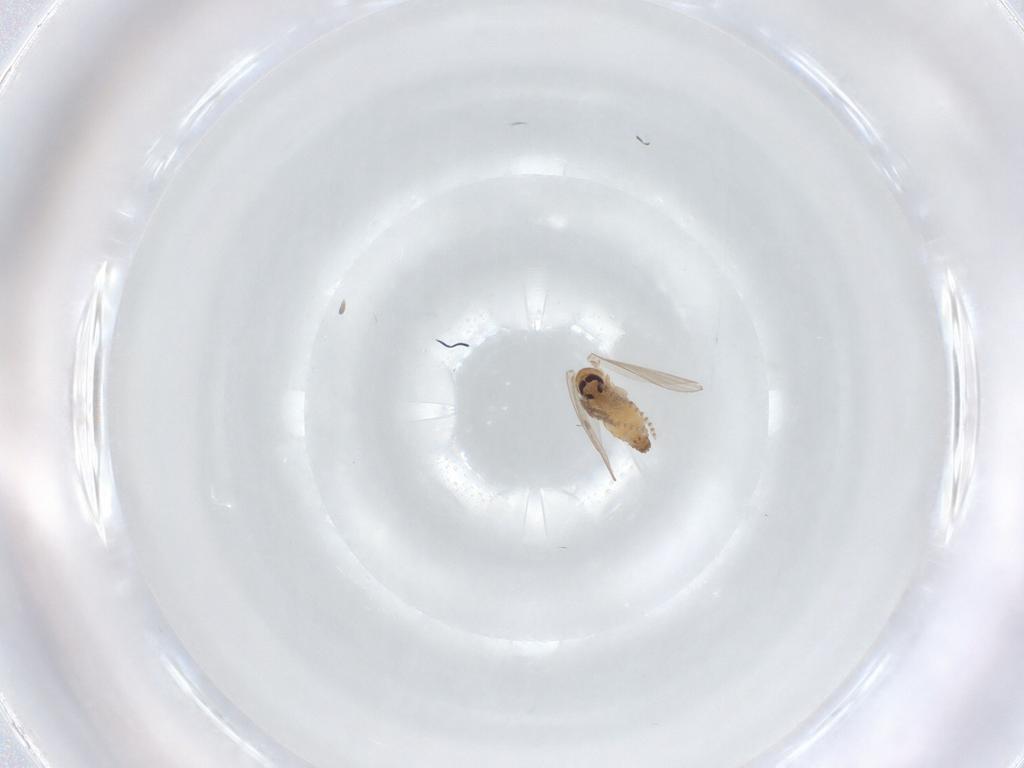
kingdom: Animalia
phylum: Arthropoda
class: Insecta
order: Diptera
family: Psychodidae
